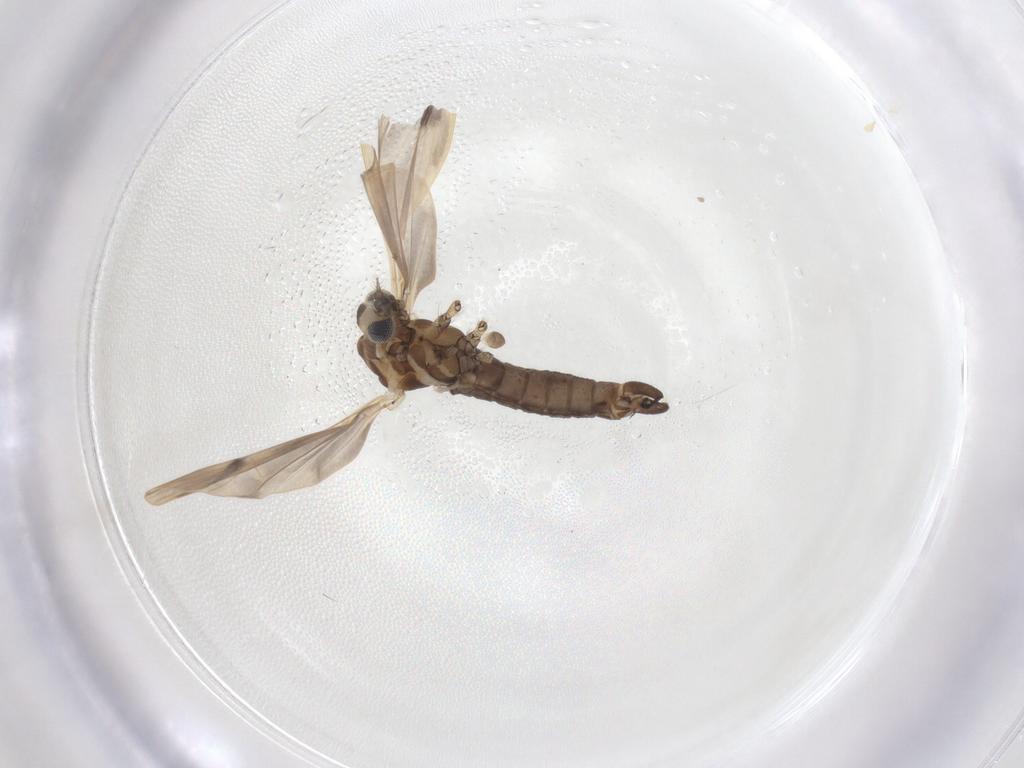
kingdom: Animalia
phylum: Arthropoda
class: Insecta
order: Diptera
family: Limoniidae
